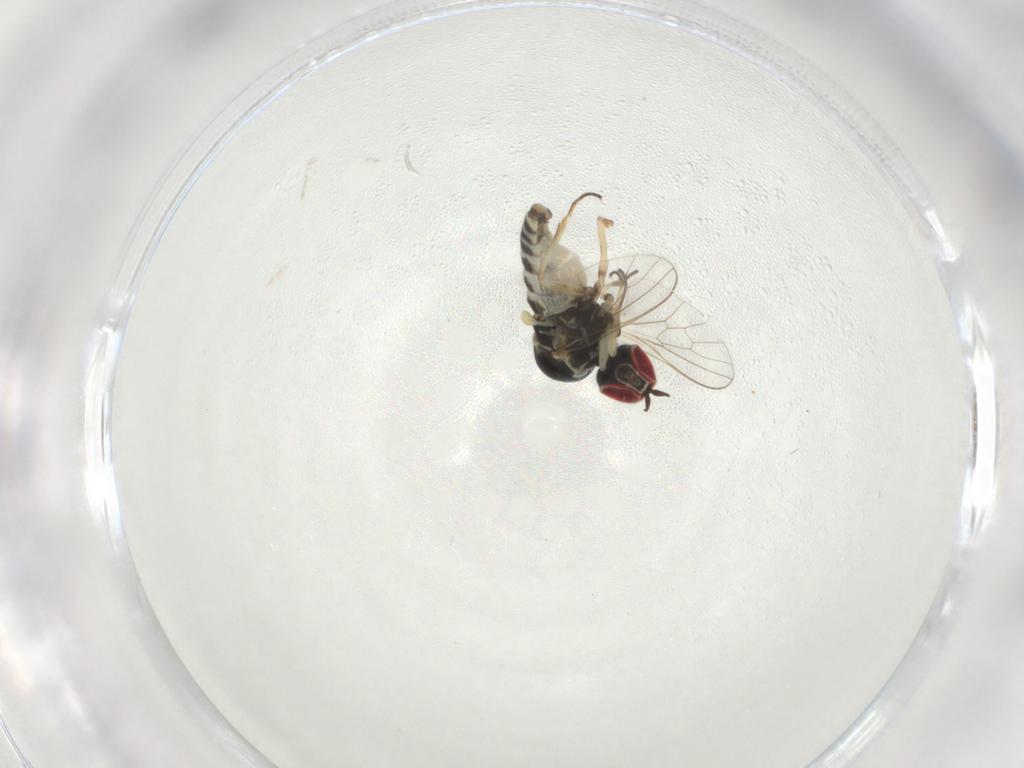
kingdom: Animalia
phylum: Arthropoda
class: Insecta
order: Diptera
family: Bombyliidae
